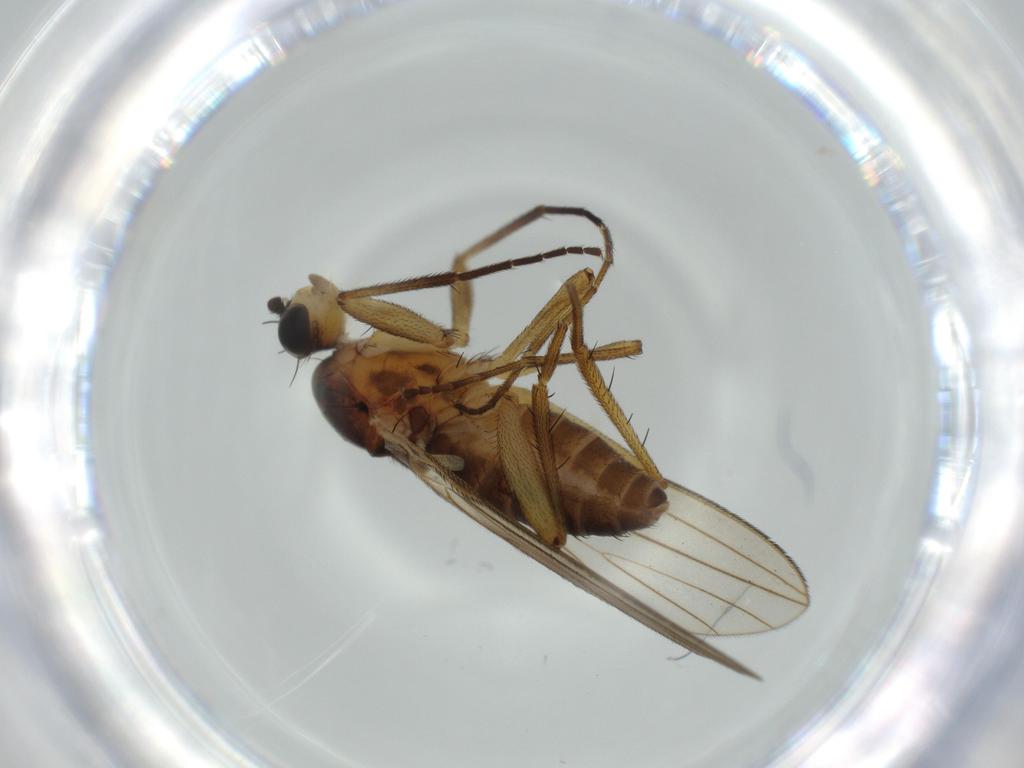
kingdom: Animalia
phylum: Arthropoda
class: Insecta
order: Diptera
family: Lonchopteridae
